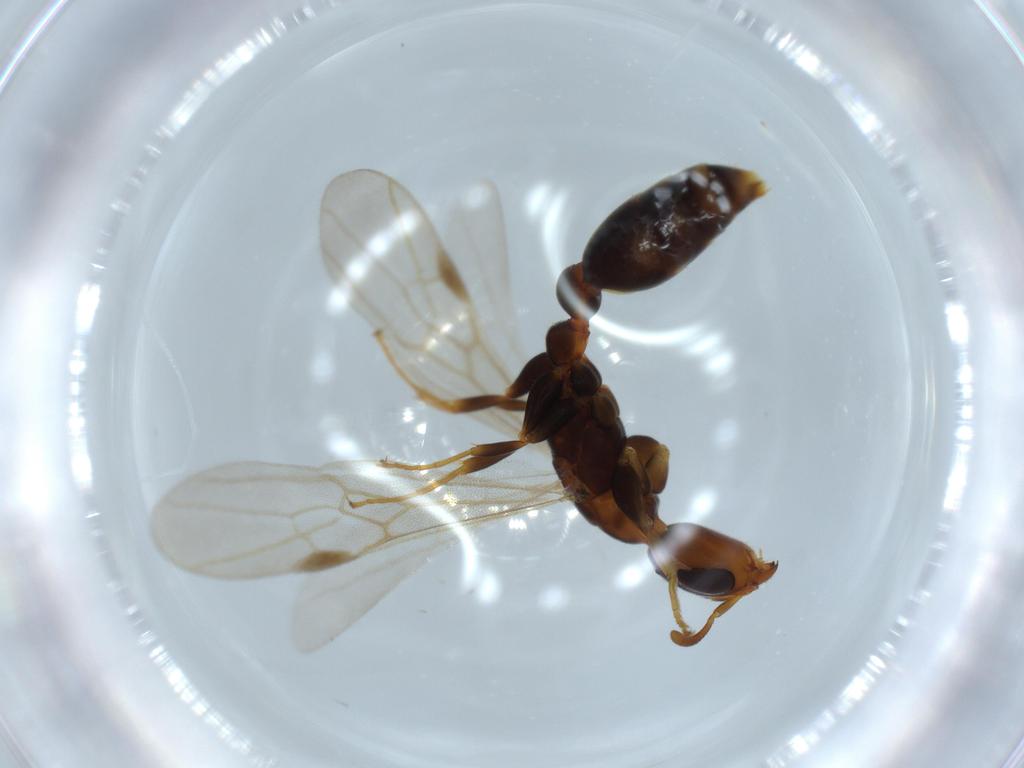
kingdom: Animalia
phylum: Arthropoda
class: Insecta
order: Hymenoptera
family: Formicidae
